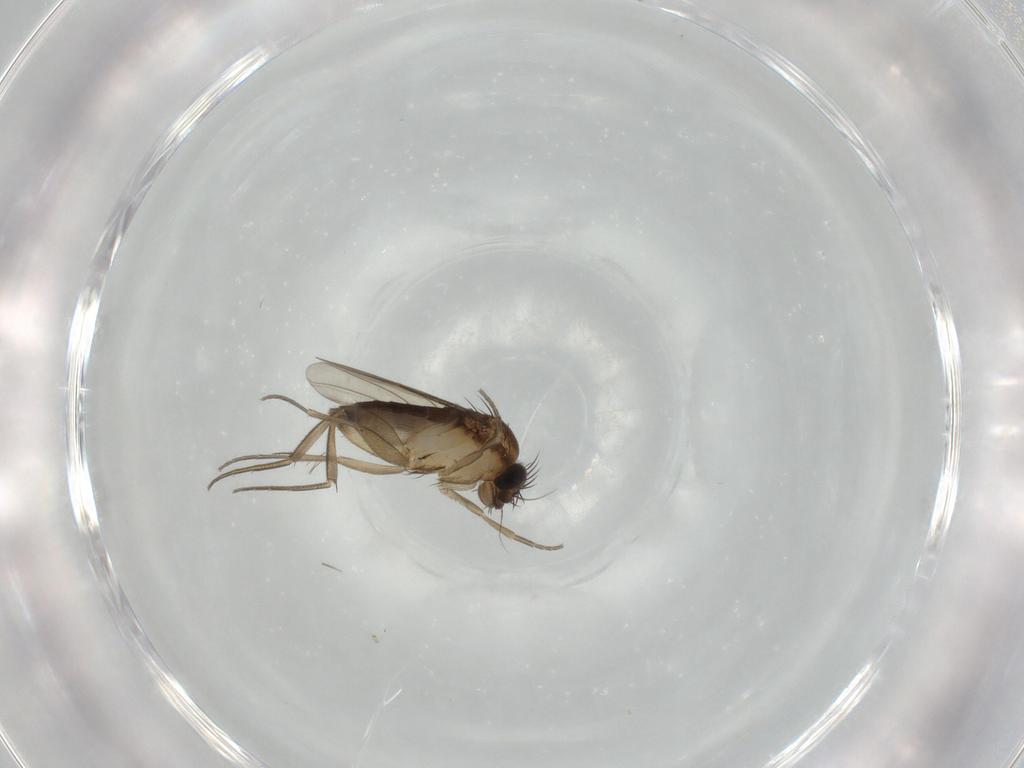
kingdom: Animalia
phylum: Arthropoda
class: Insecta
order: Diptera
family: Phoridae
